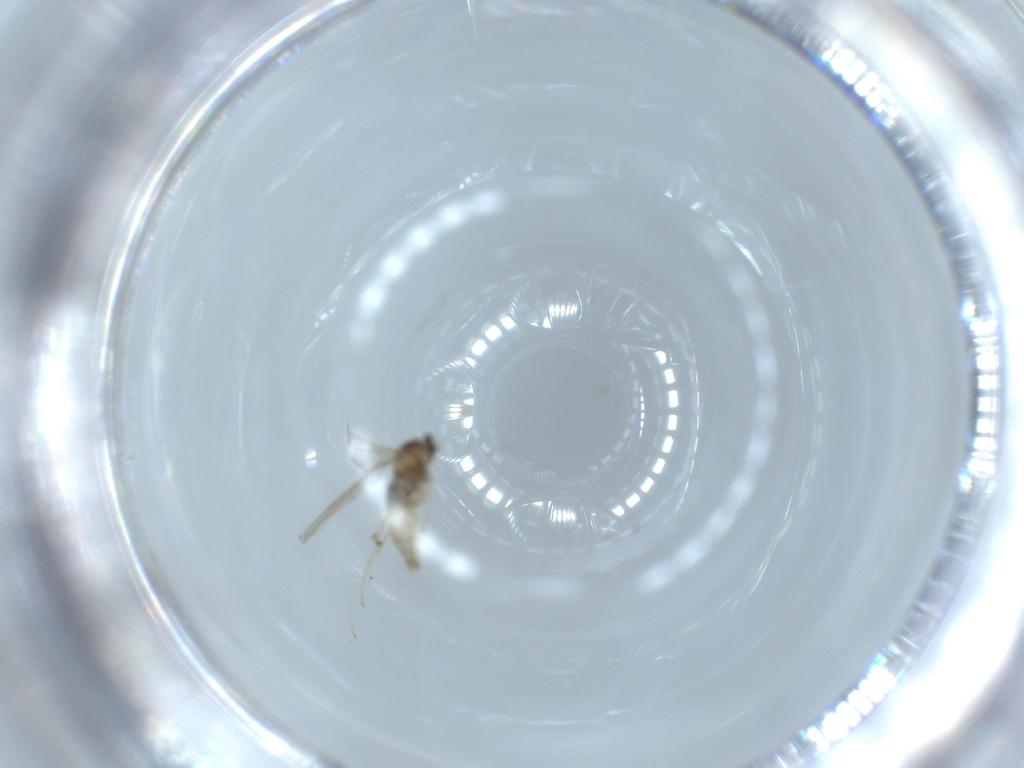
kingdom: Animalia
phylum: Arthropoda
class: Insecta
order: Diptera
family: Cecidomyiidae
